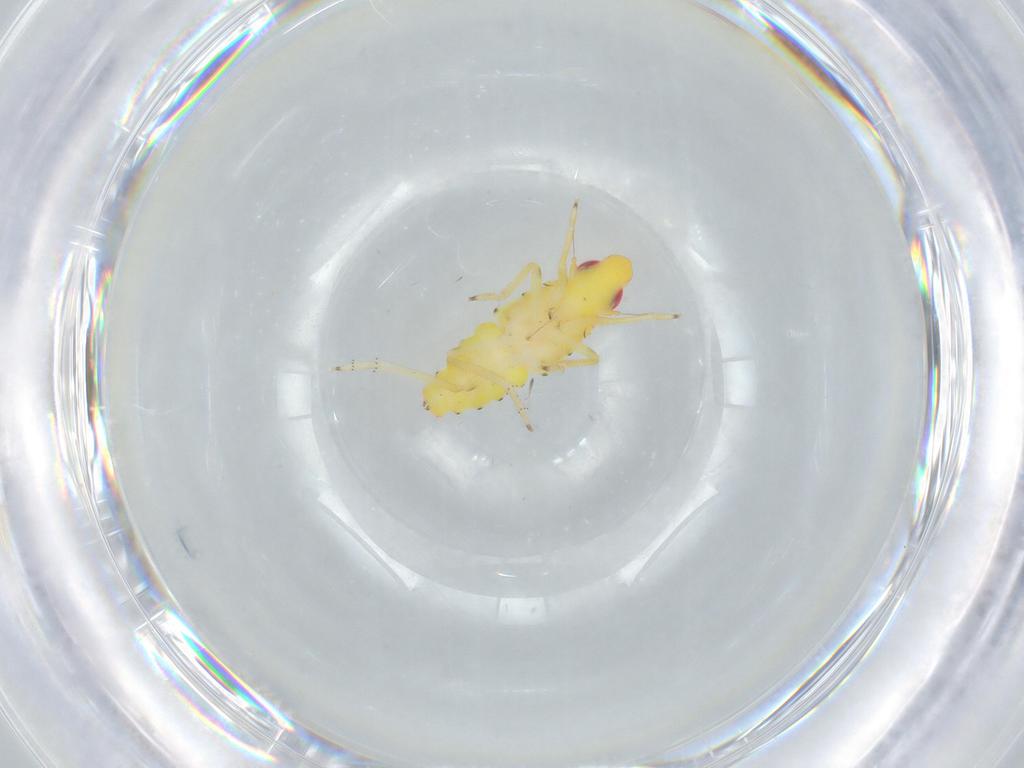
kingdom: Animalia
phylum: Arthropoda
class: Insecta
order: Hemiptera
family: Tropiduchidae
